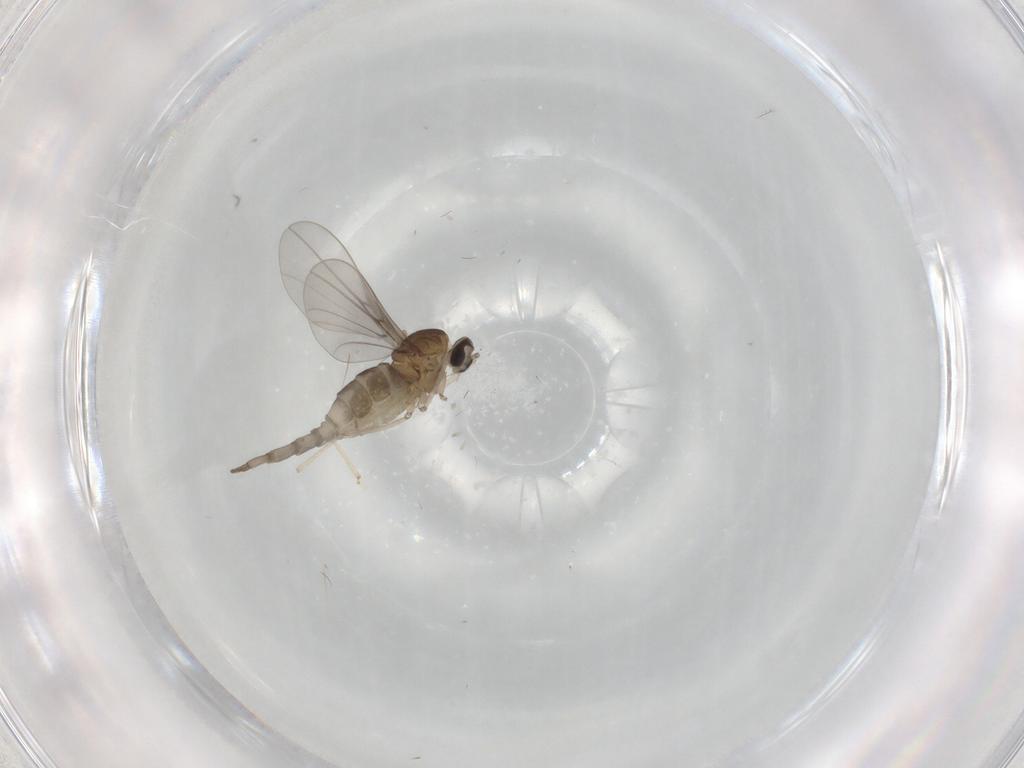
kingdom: Animalia
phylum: Arthropoda
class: Insecta
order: Diptera
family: Cecidomyiidae
